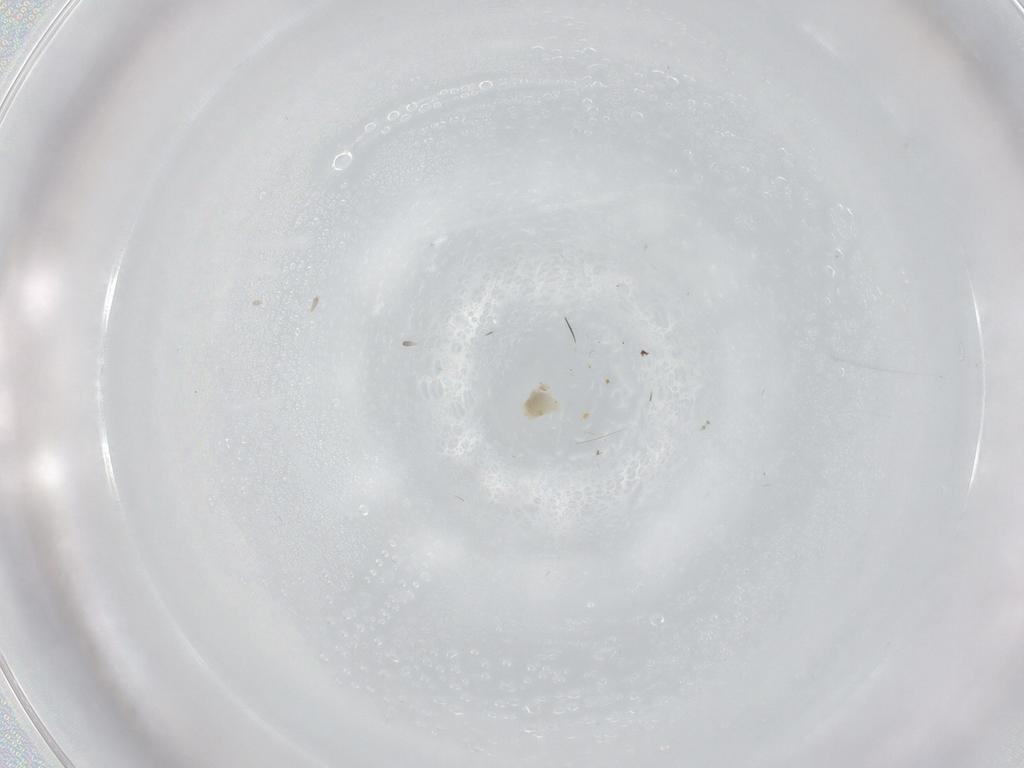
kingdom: Animalia
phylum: Arthropoda
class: Insecta
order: Hemiptera
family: Aleyrodidae
